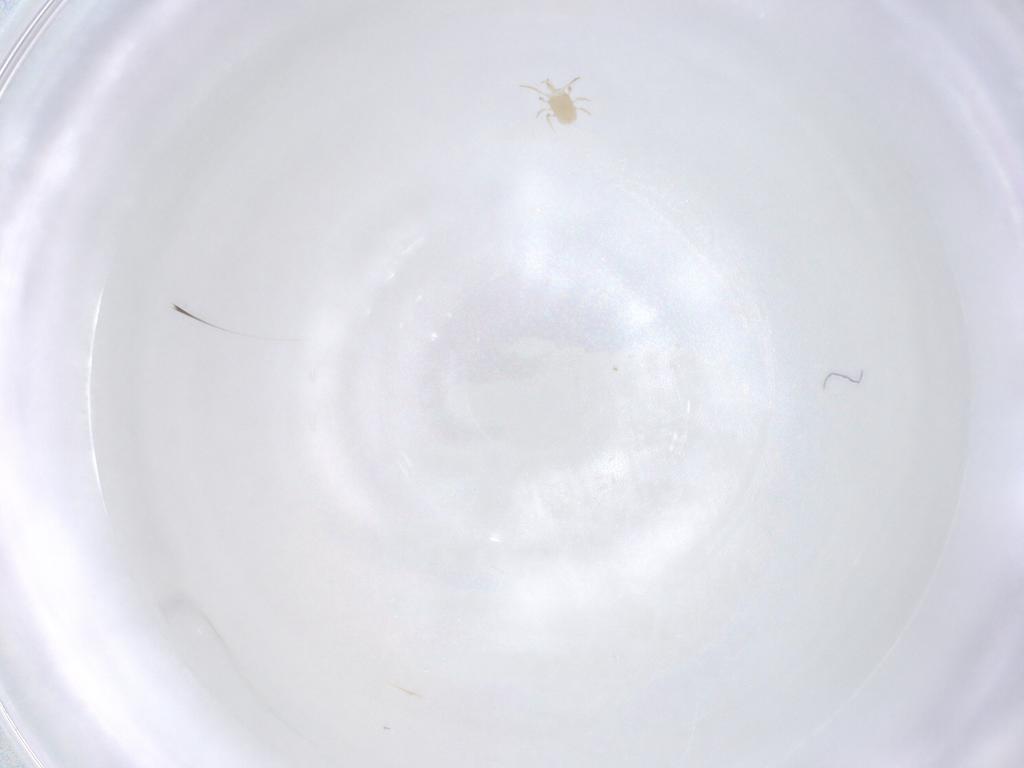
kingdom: Animalia
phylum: Arthropoda
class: Arachnida
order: Mesostigmata
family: Phytoseiidae
